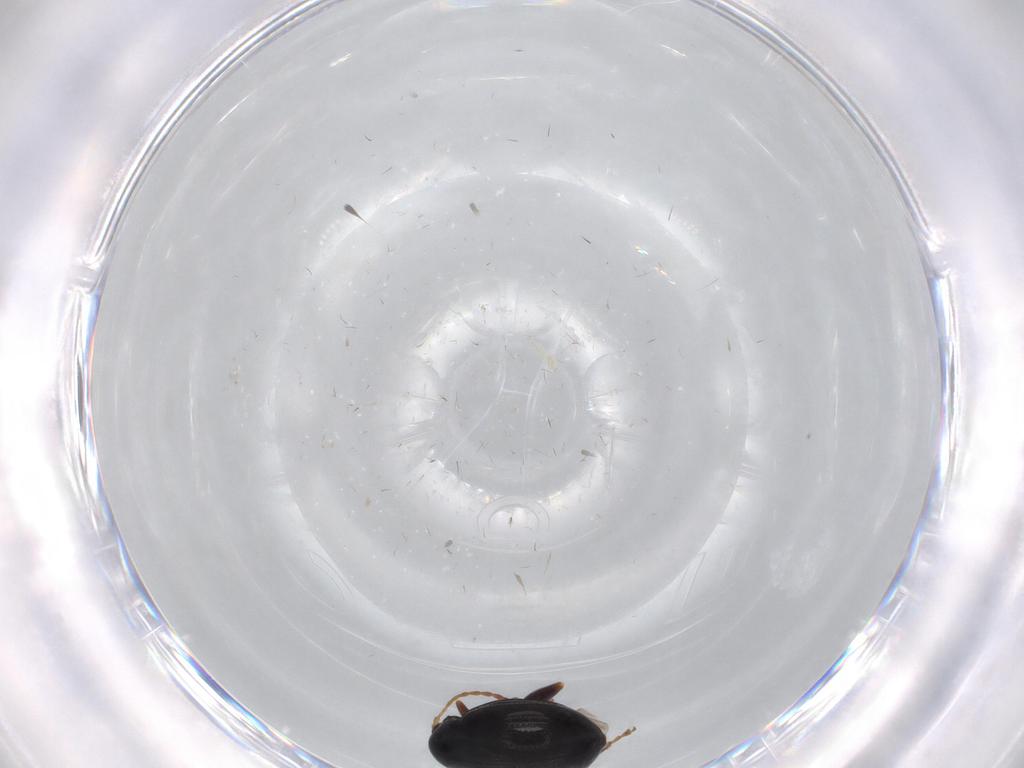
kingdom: Animalia
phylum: Arthropoda
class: Insecta
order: Coleoptera
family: Chrysomelidae
